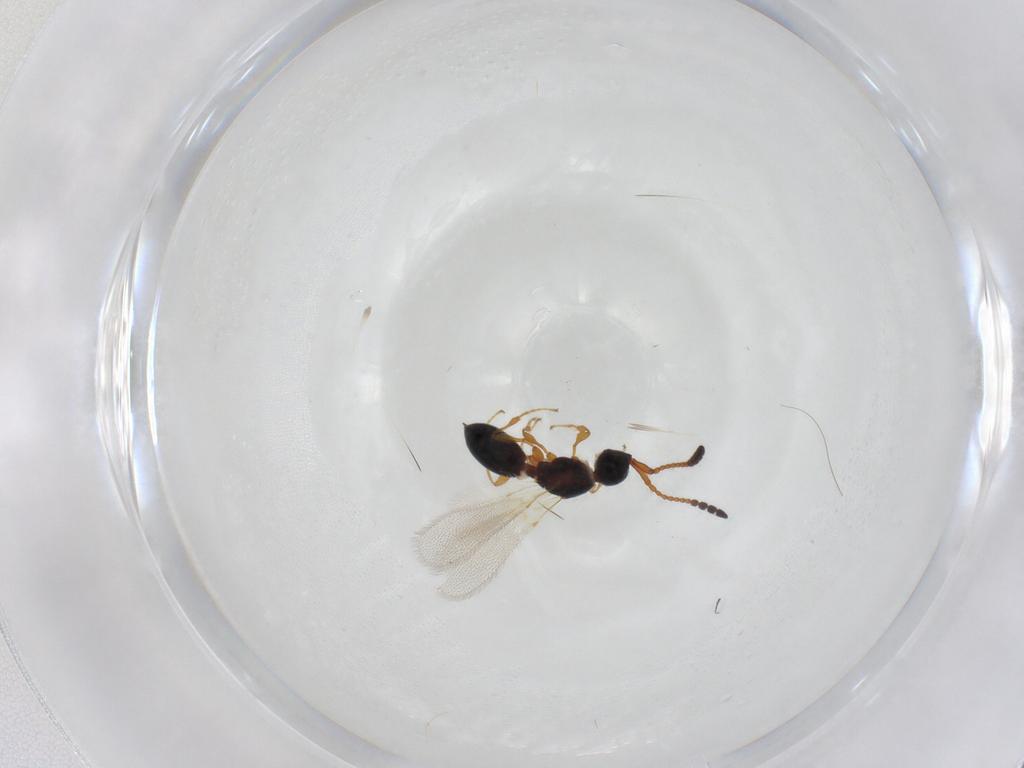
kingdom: Animalia
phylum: Arthropoda
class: Insecta
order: Hymenoptera
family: Diapriidae
